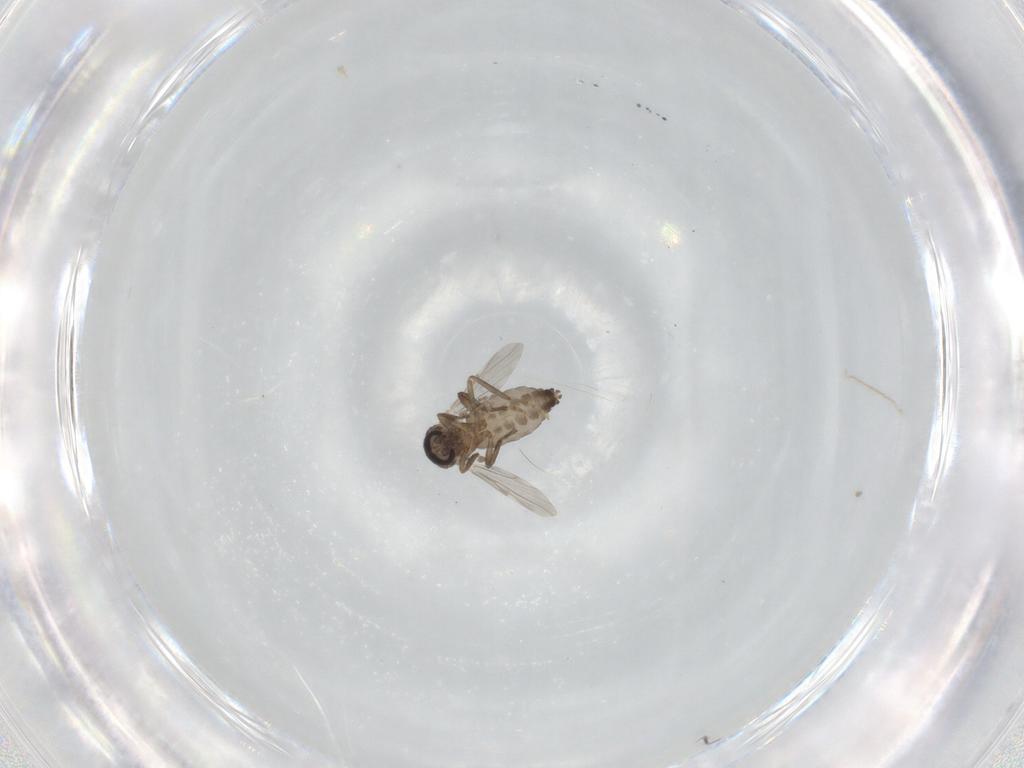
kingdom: Animalia
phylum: Arthropoda
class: Insecta
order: Diptera
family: Ceratopogonidae
